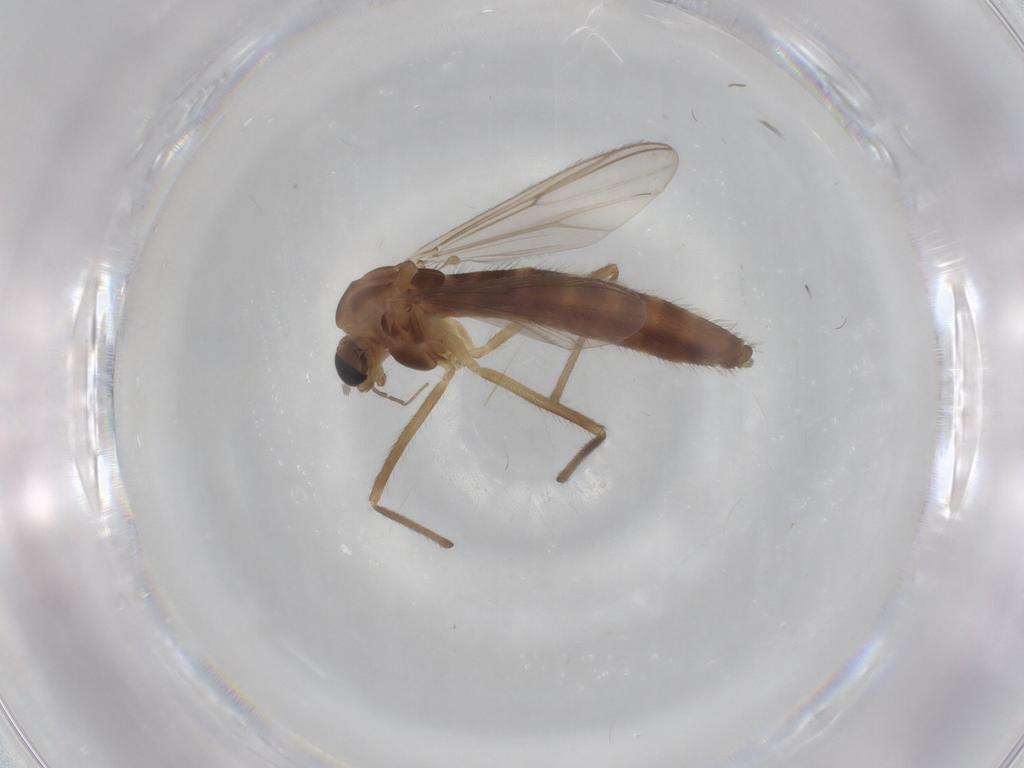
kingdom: Animalia
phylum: Arthropoda
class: Insecta
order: Diptera
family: Chironomidae
